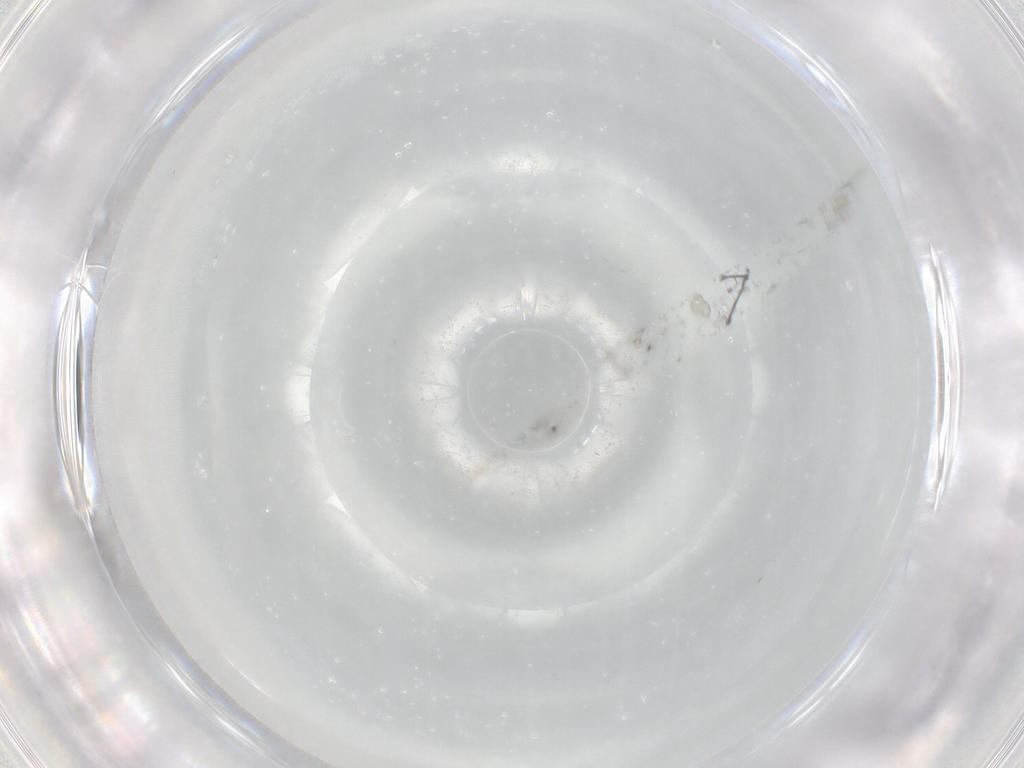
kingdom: Animalia
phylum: Arthropoda
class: Insecta
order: Diptera
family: Chironomidae
